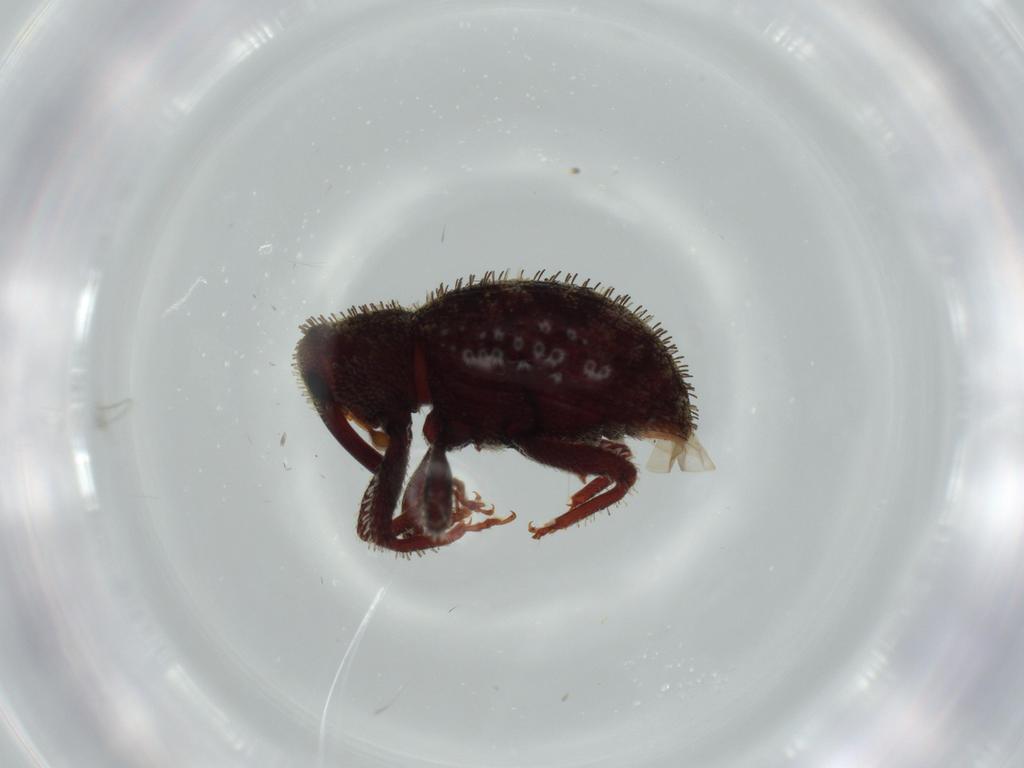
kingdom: Animalia
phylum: Arthropoda
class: Insecta
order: Coleoptera
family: Curculionidae
